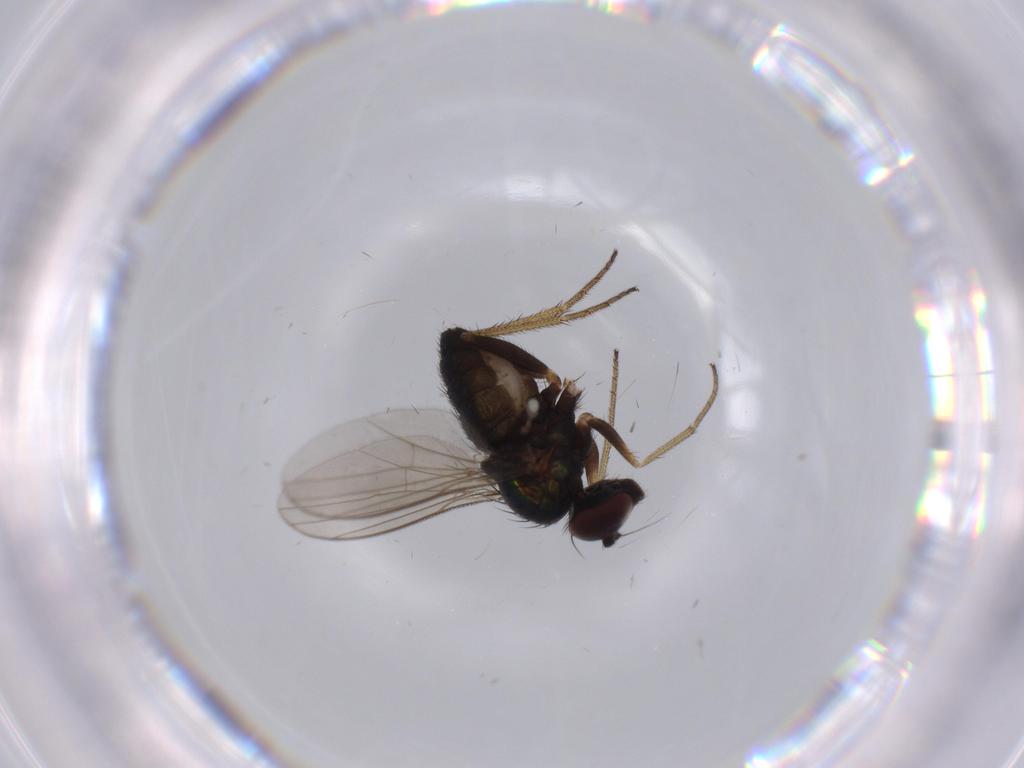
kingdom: Animalia
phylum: Arthropoda
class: Insecta
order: Diptera
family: Dolichopodidae
